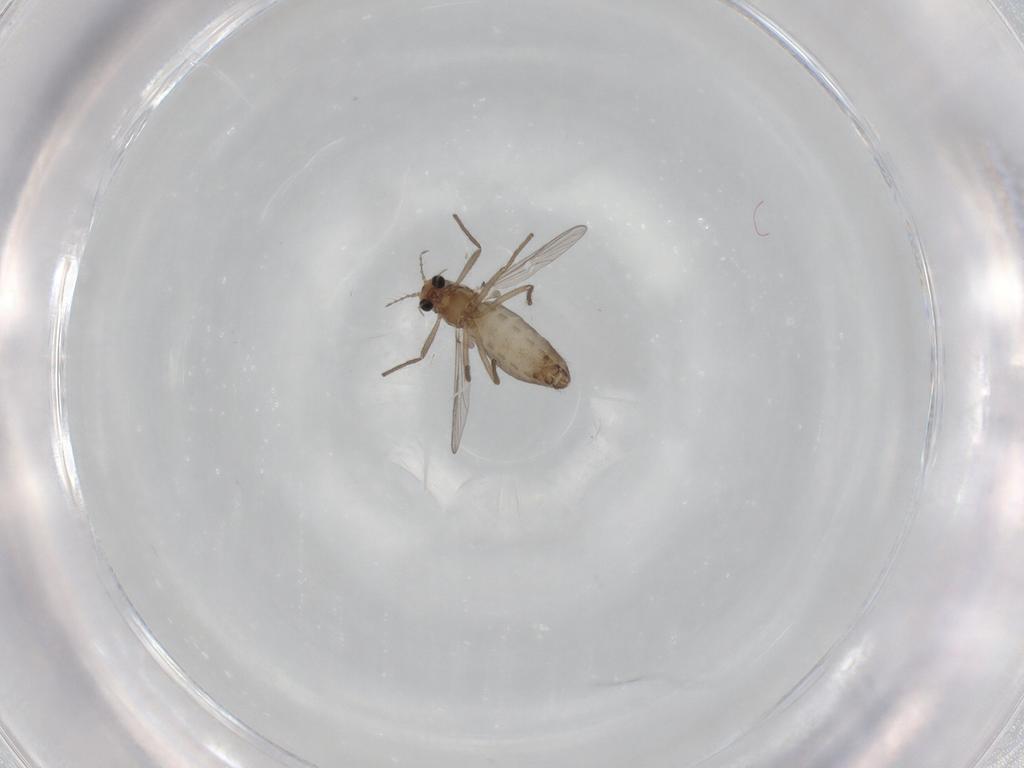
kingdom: Animalia
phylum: Arthropoda
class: Insecta
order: Diptera
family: Chironomidae
